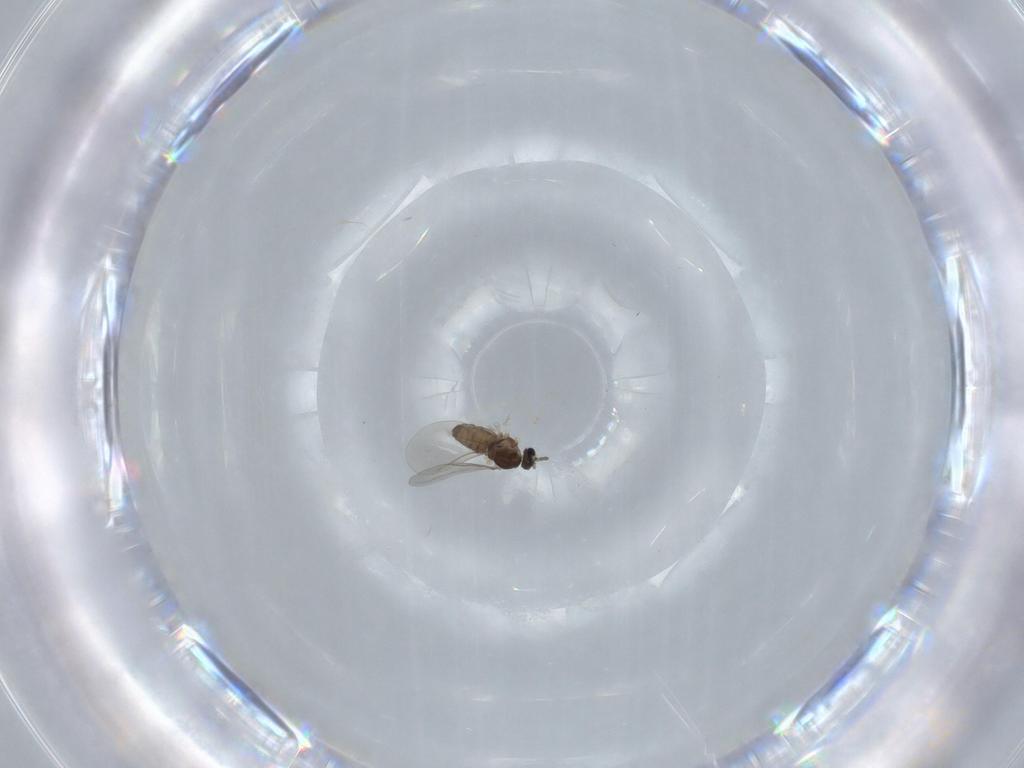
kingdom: Animalia
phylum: Arthropoda
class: Insecta
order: Diptera
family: Cecidomyiidae
